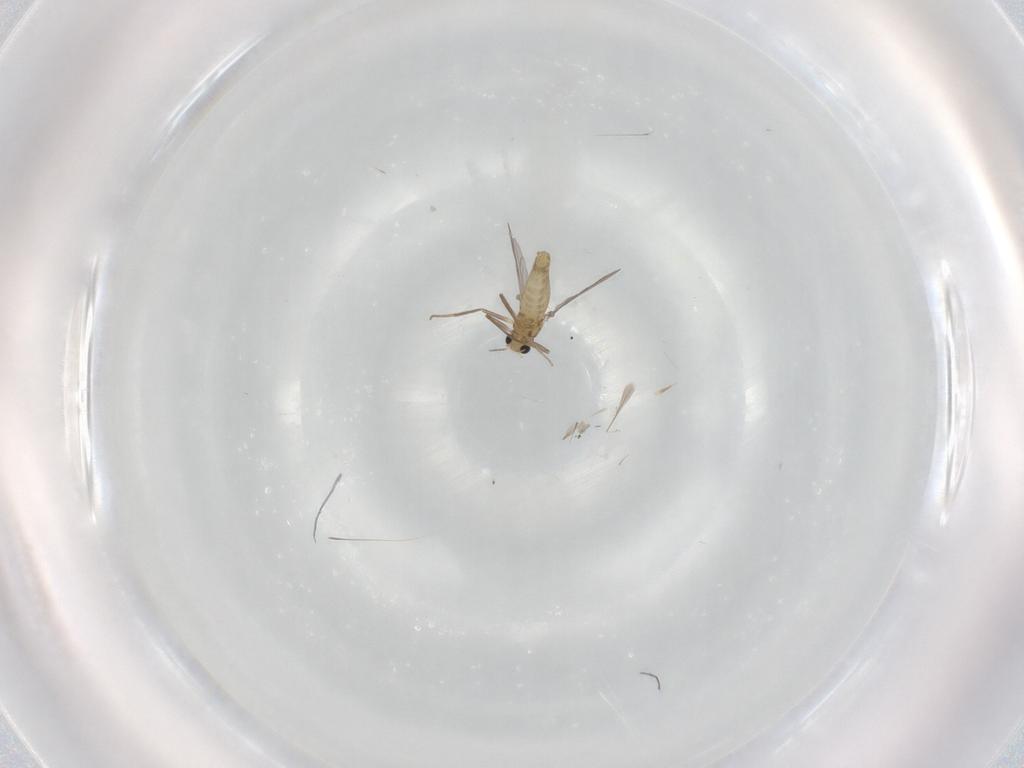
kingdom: Animalia
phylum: Arthropoda
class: Insecta
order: Diptera
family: Chironomidae
